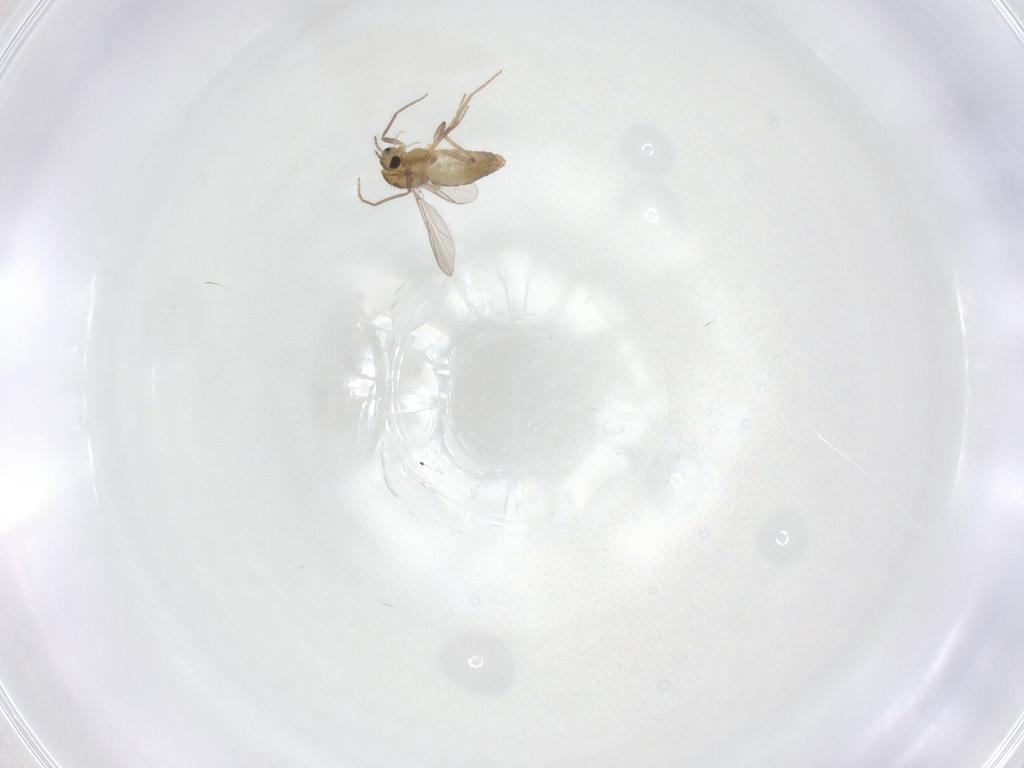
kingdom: Animalia
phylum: Arthropoda
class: Insecta
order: Diptera
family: Chironomidae
